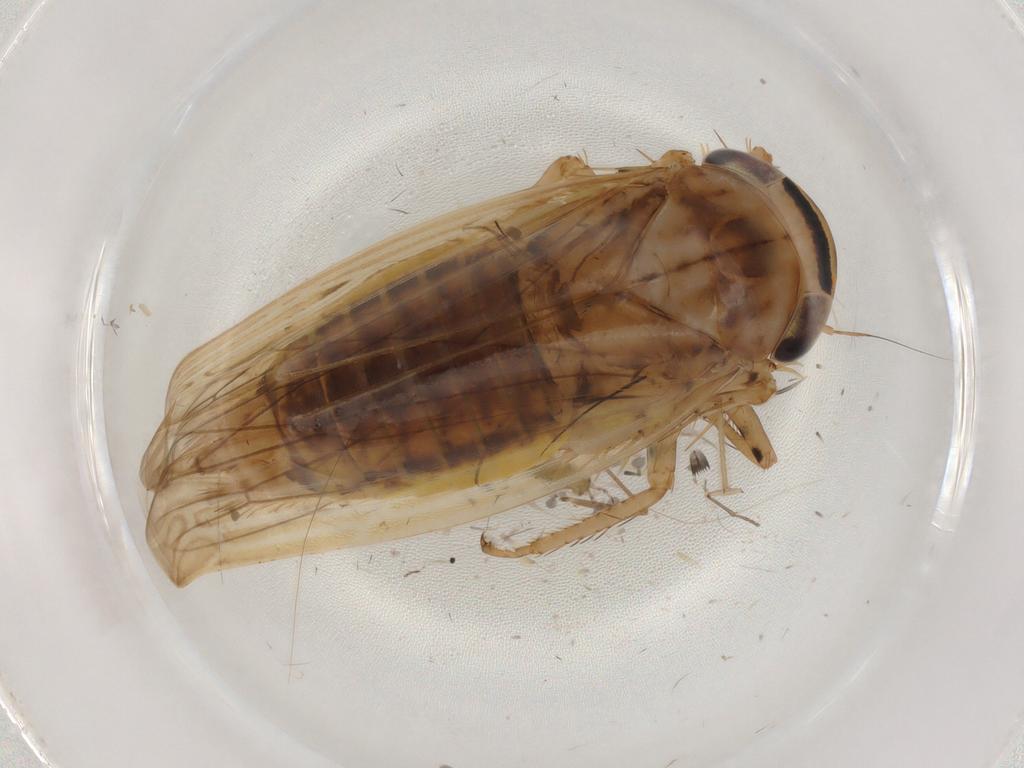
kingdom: Animalia
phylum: Arthropoda
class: Insecta
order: Hemiptera
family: Cicadellidae
